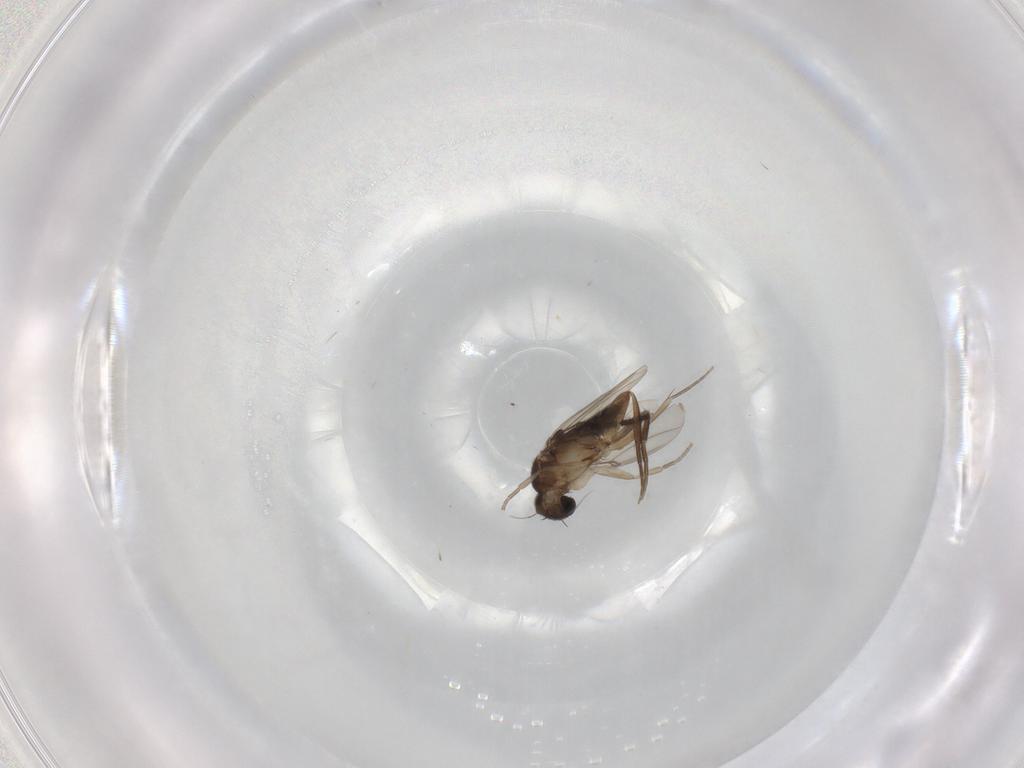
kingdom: Animalia
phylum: Arthropoda
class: Insecta
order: Diptera
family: Phoridae
